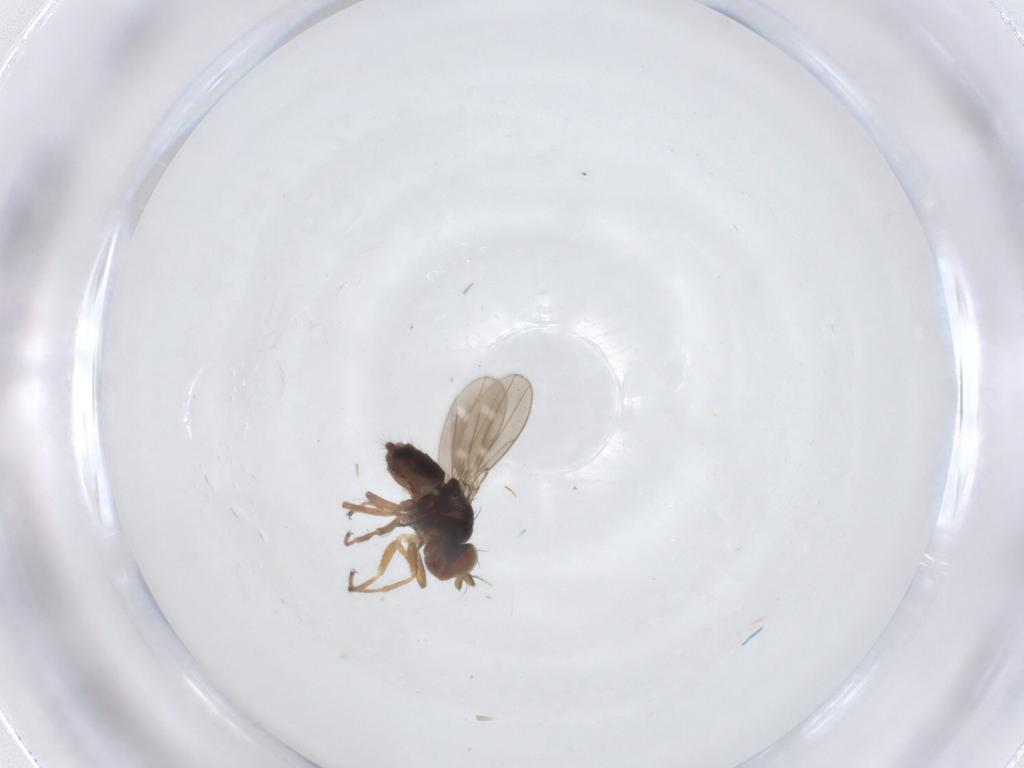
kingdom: Animalia
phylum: Arthropoda
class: Insecta
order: Diptera
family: Ephydridae
